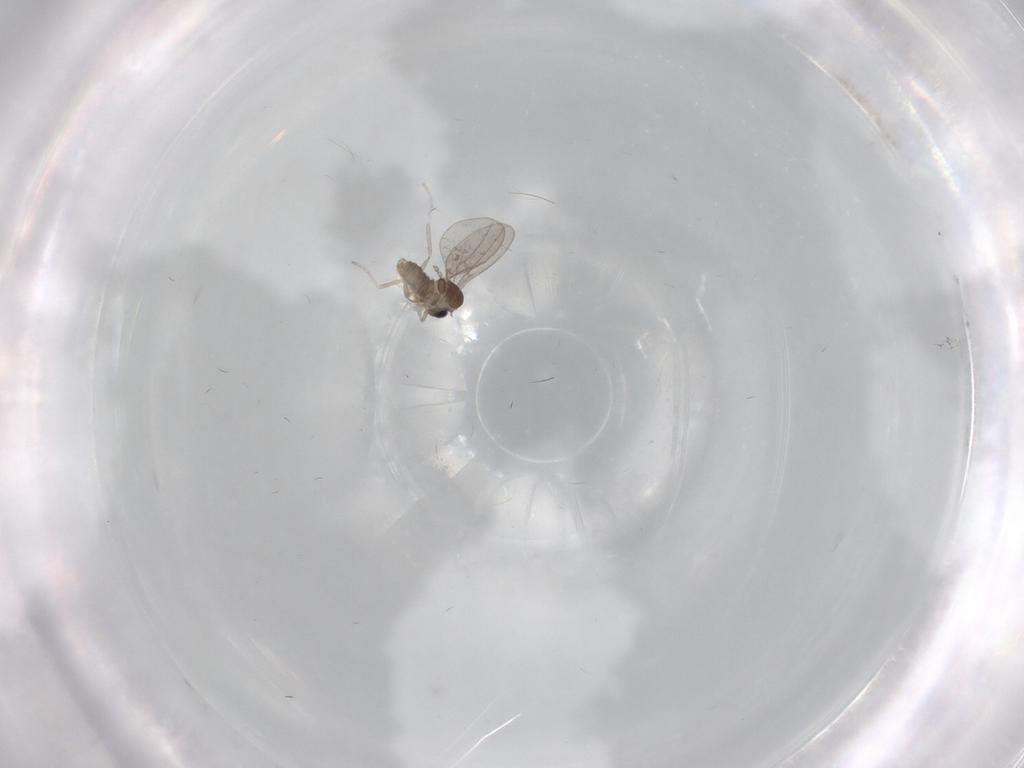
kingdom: Animalia
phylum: Arthropoda
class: Insecta
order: Diptera
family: Cecidomyiidae
